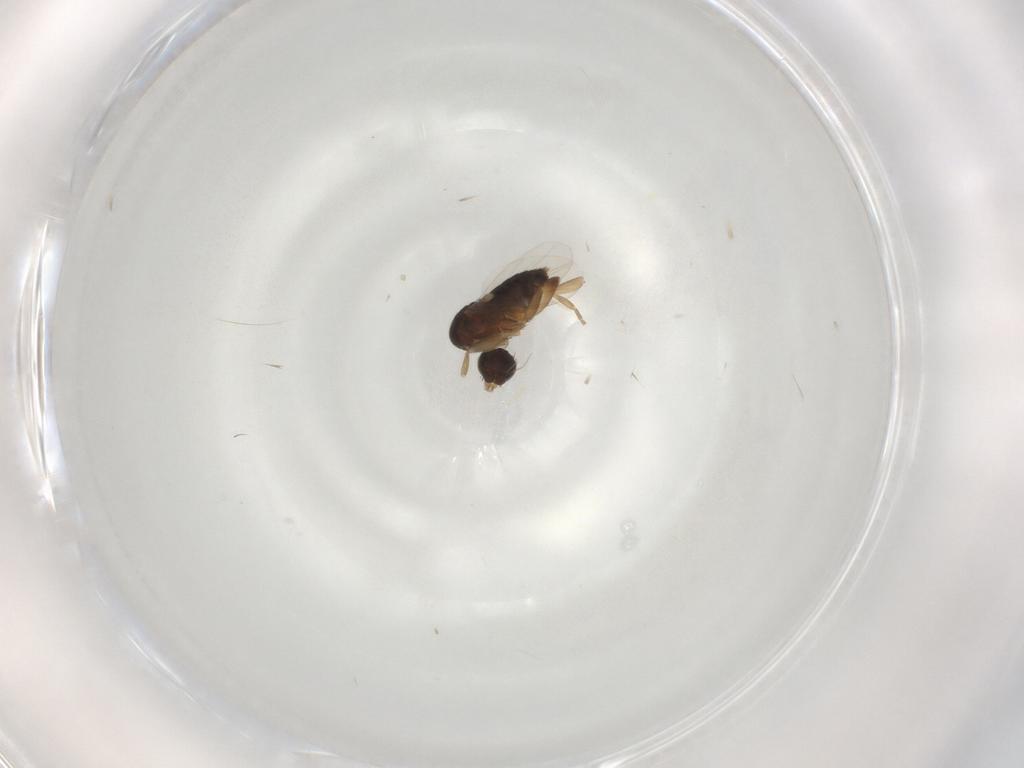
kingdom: Animalia
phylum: Arthropoda
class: Insecta
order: Diptera
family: Phoridae
